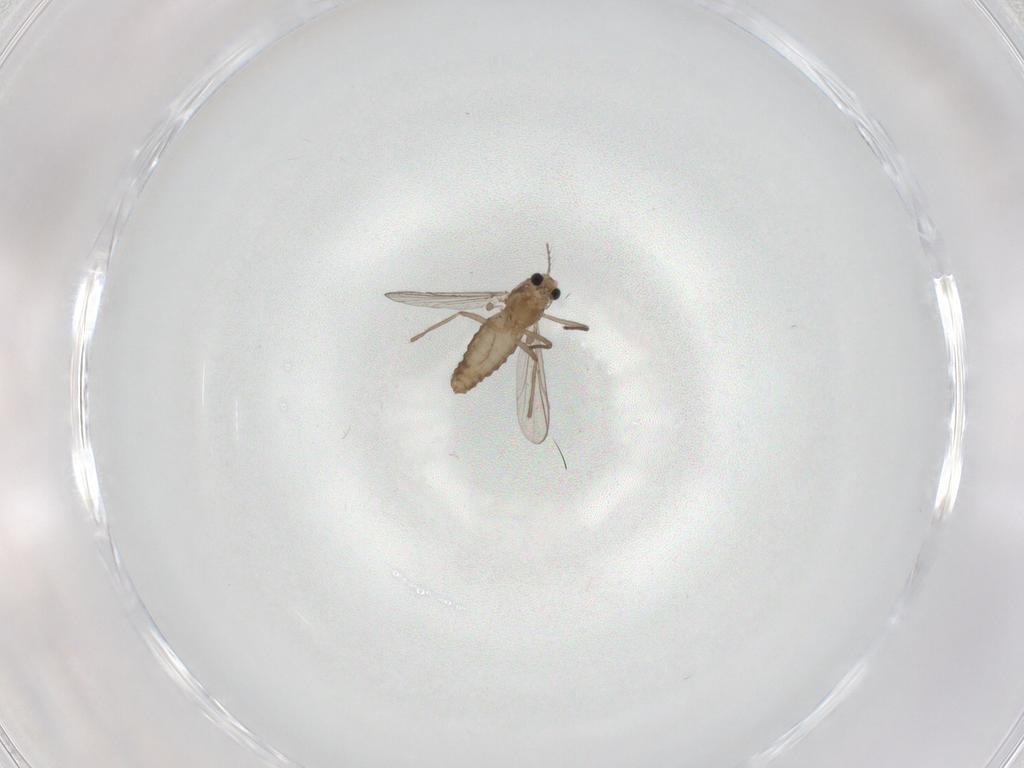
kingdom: Animalia
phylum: Arthropoda
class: Insecta
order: Diptera
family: Chironomidae
